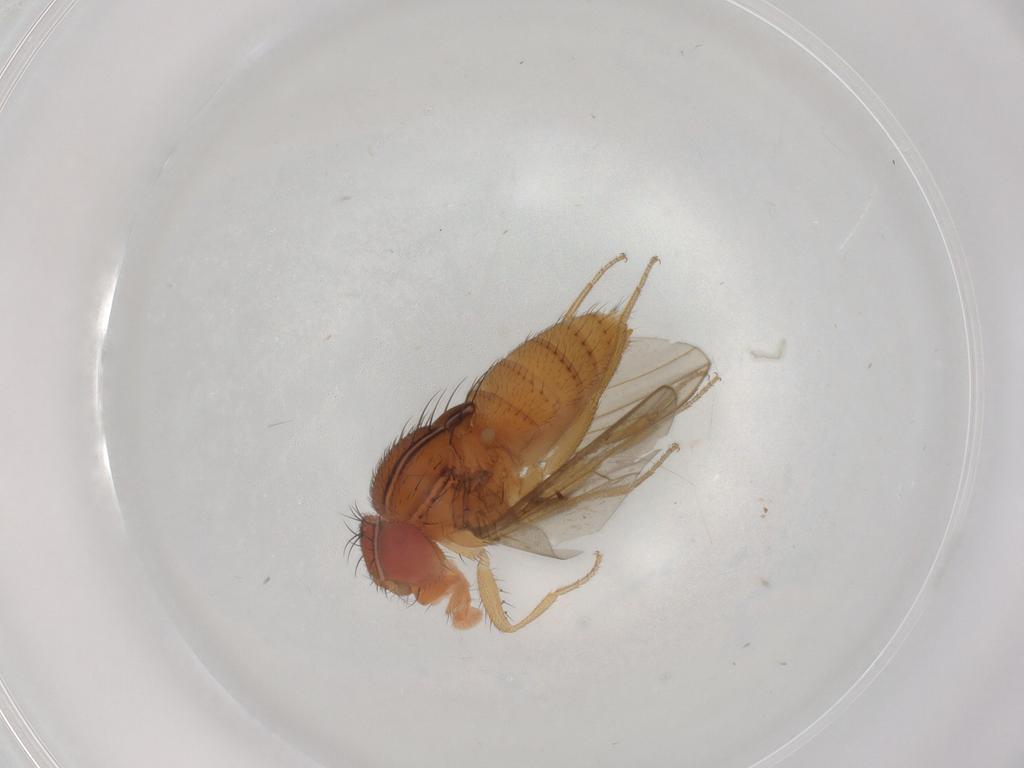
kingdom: Animalia
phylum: Arthropoda
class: Insecta
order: Diptera
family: Drosophilidae
